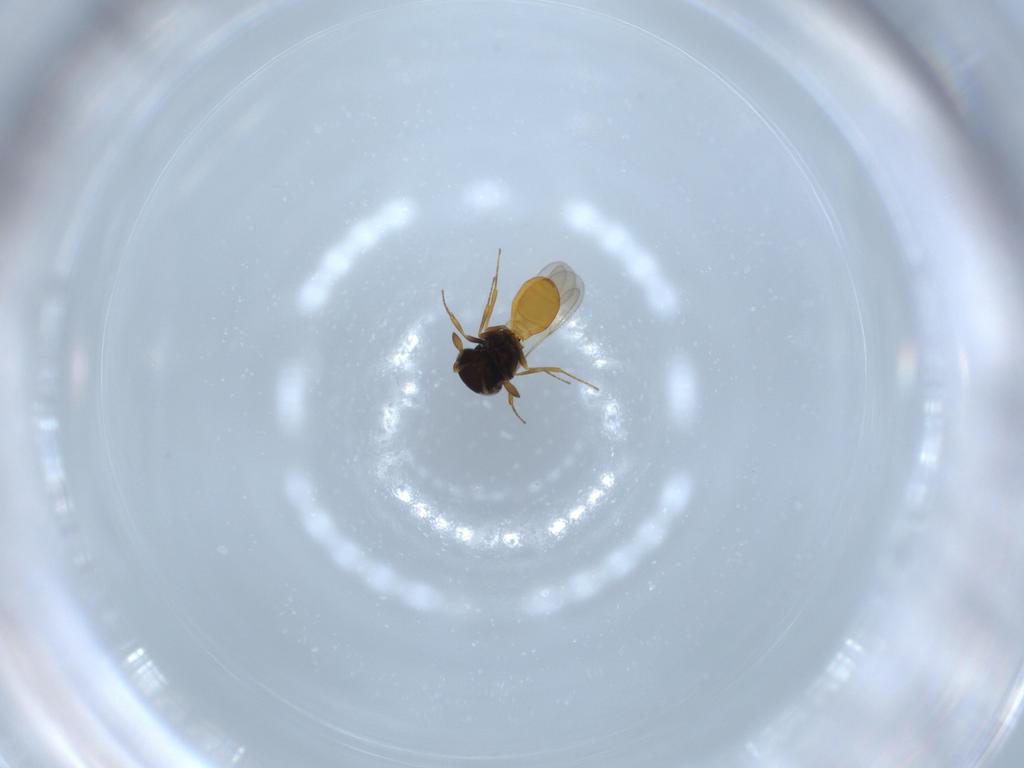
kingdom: Animalia
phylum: Arthropoda
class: Insecta
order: Hymenoptera
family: Scelionidae
